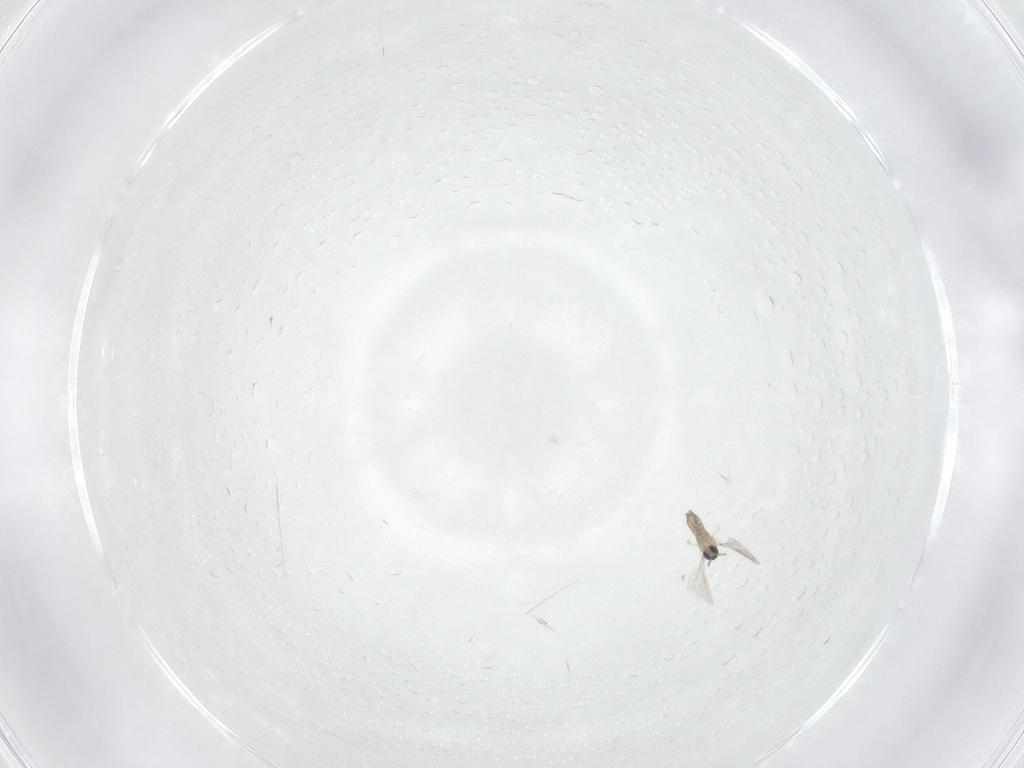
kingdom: Animalia
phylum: Arthropoda
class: Insecta
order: Diptera
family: Cecidomyiidae
